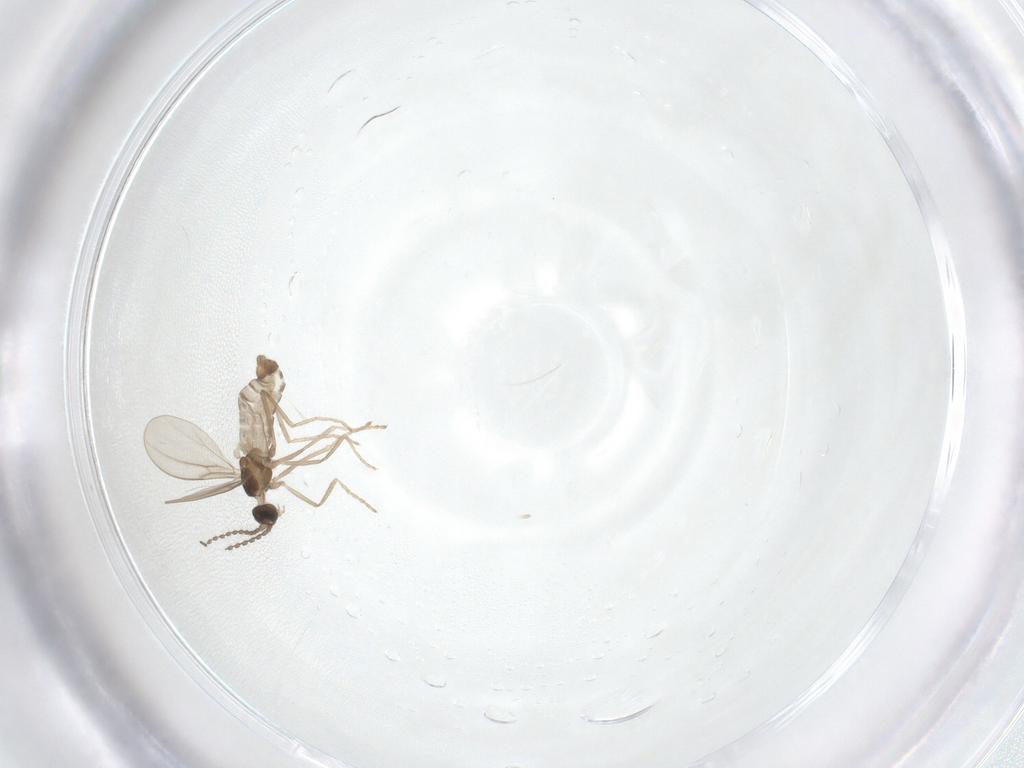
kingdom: Animalia
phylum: Arthropoda
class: Insecta
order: Diptera
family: Cecidomyiidae
